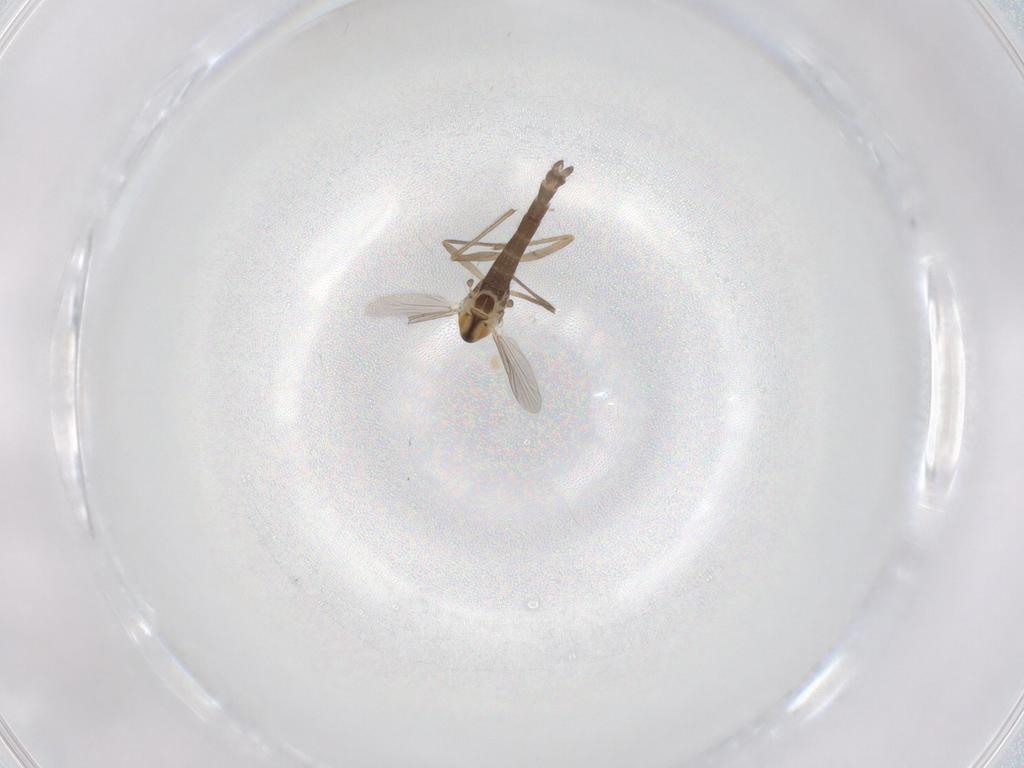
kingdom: Animalia
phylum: Arthropoda
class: Insecta
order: Diptera
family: Chironomidae
